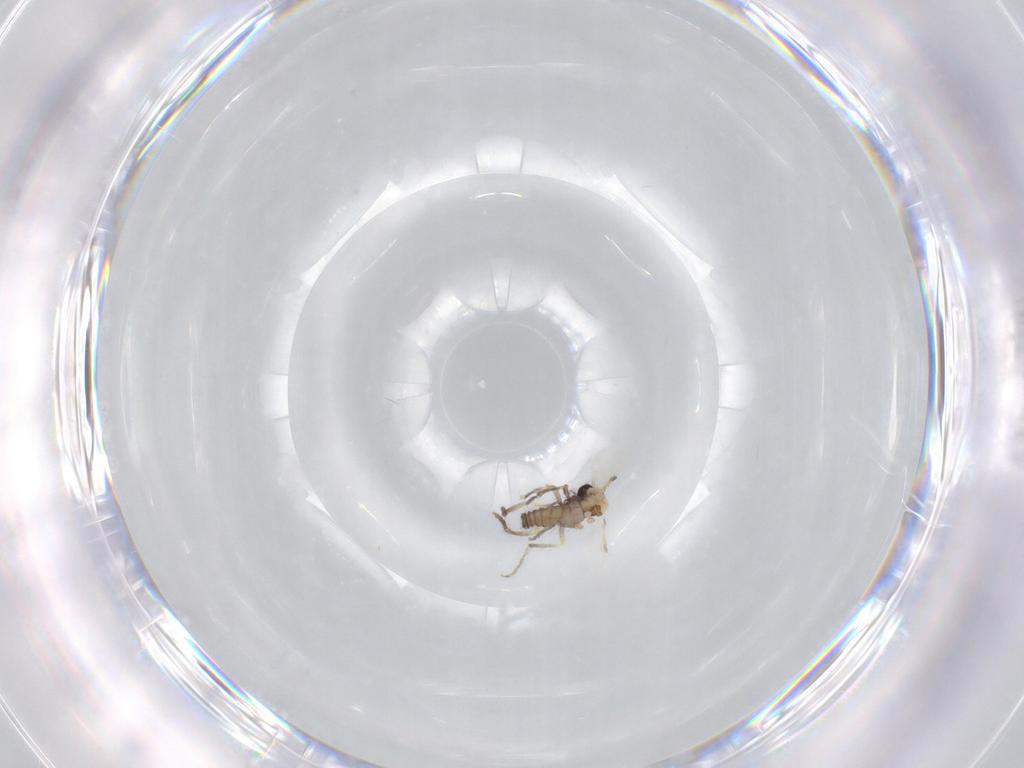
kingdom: Animalia
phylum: Arthropoda
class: Insecta
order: Diptera
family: Ceratopogonidae
